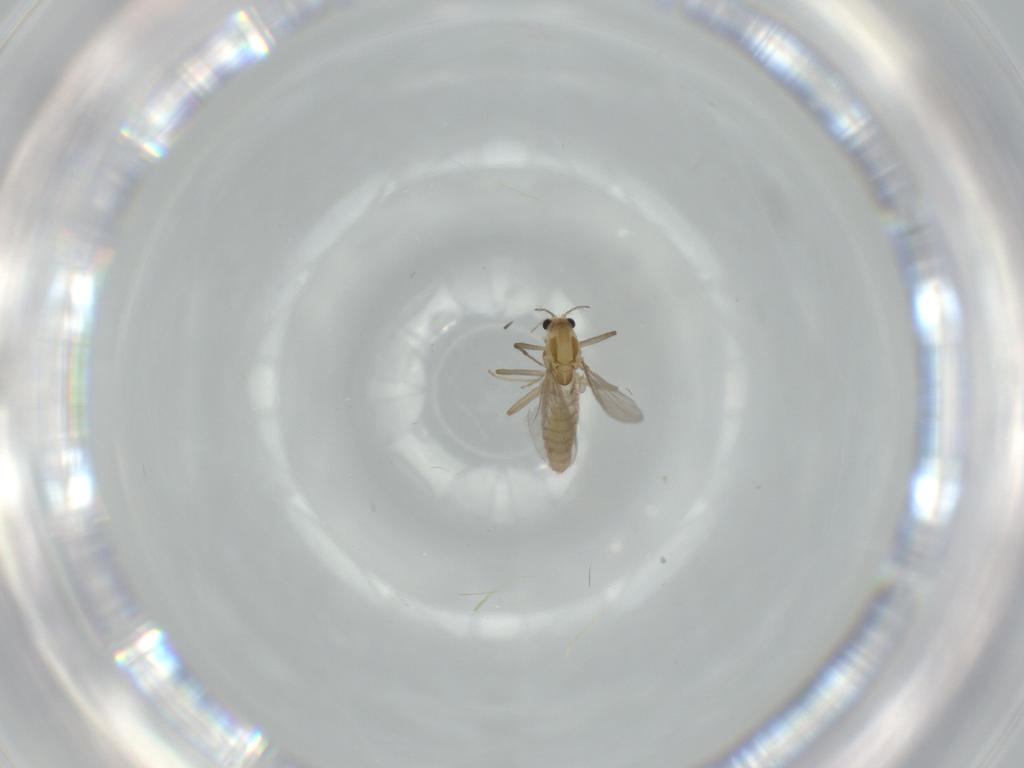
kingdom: Animalia
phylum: Arthropoda
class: Insecta
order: Diptera
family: Chironomidae
